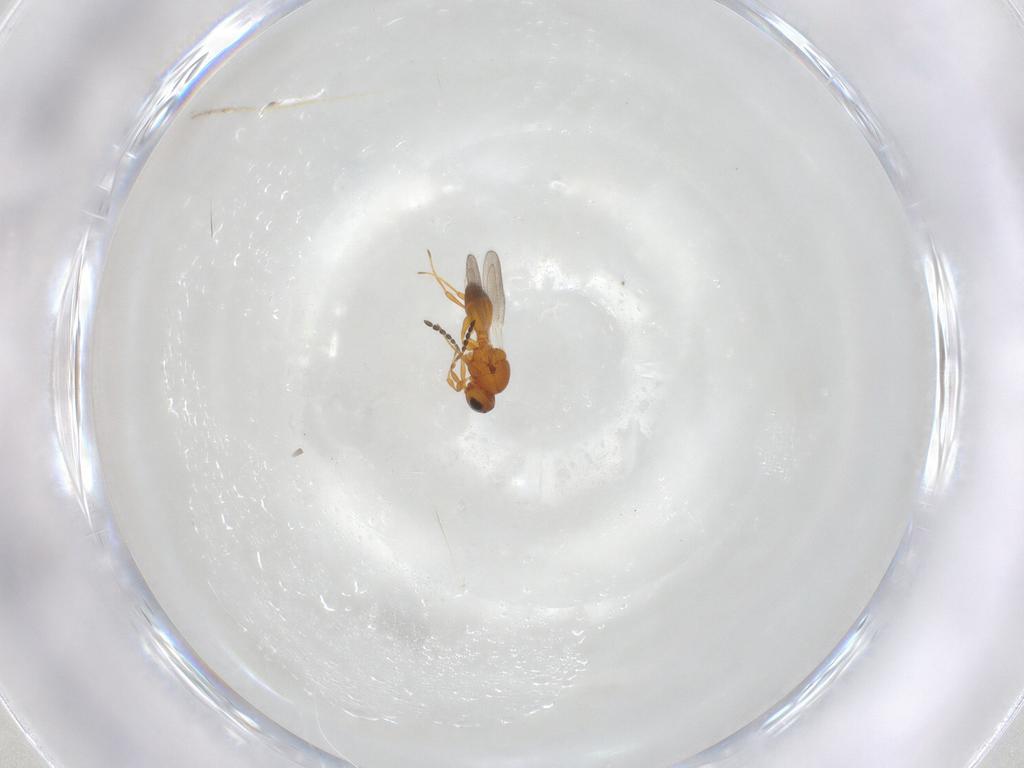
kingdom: Animalia
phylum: Arthropoda
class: Insecta
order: Hymenoptera
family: Platygastridae
